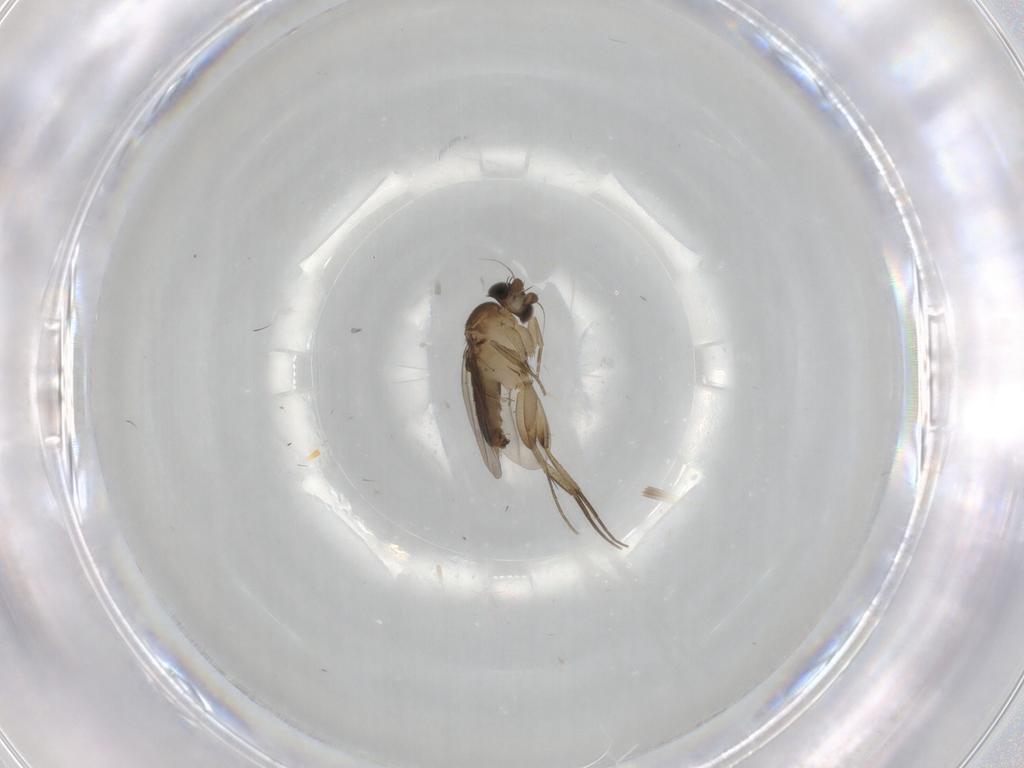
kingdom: Animalia
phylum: Arthropoda
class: Insecta
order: Diptera
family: Phoridae
